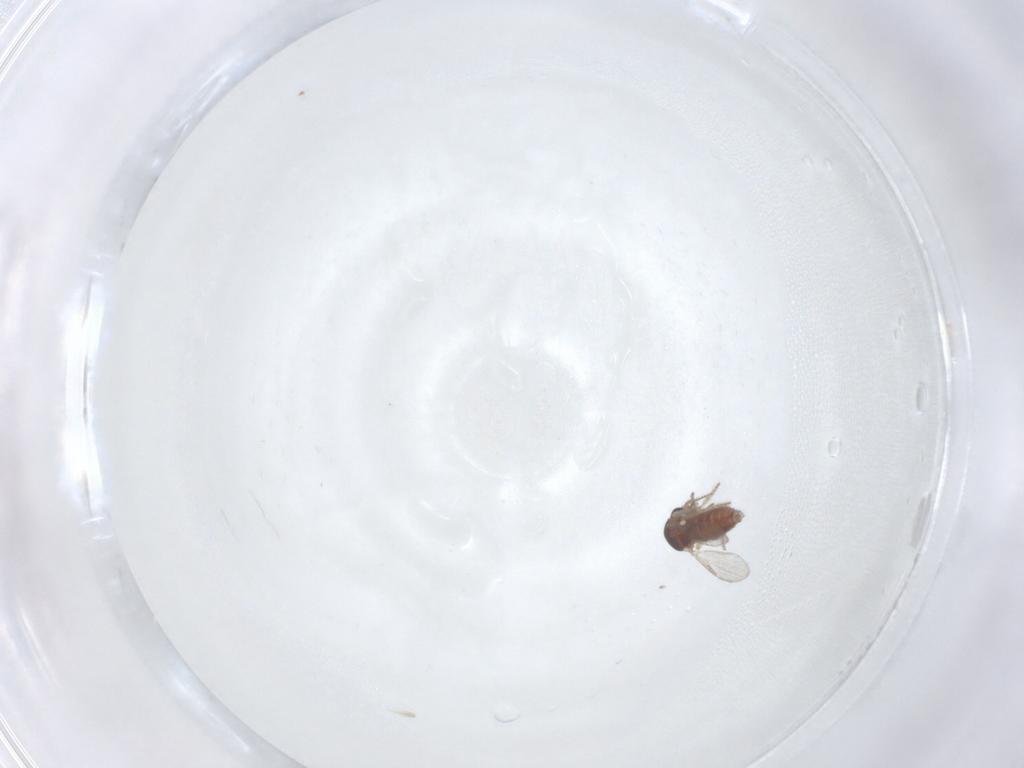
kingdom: Animalia
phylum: Arthropoda
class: Insecta
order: Diptera
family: Ceratopogonidae
